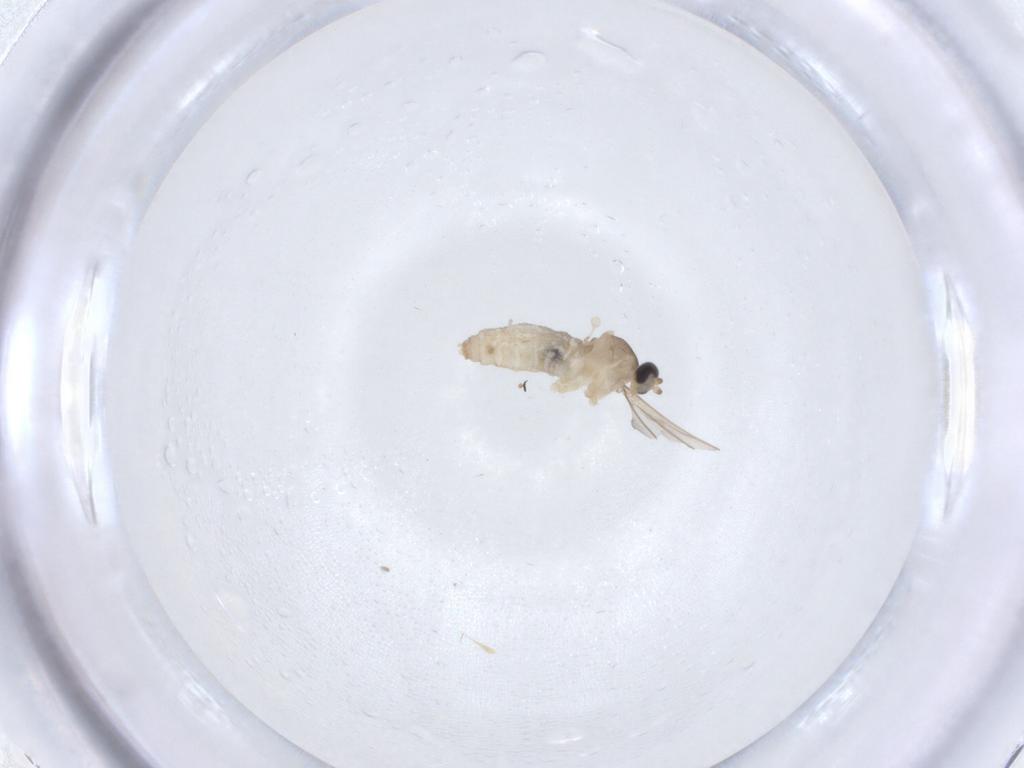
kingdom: Animalia
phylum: Arthropoda
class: Insecta
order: Diptera
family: Cecidomyiidae
